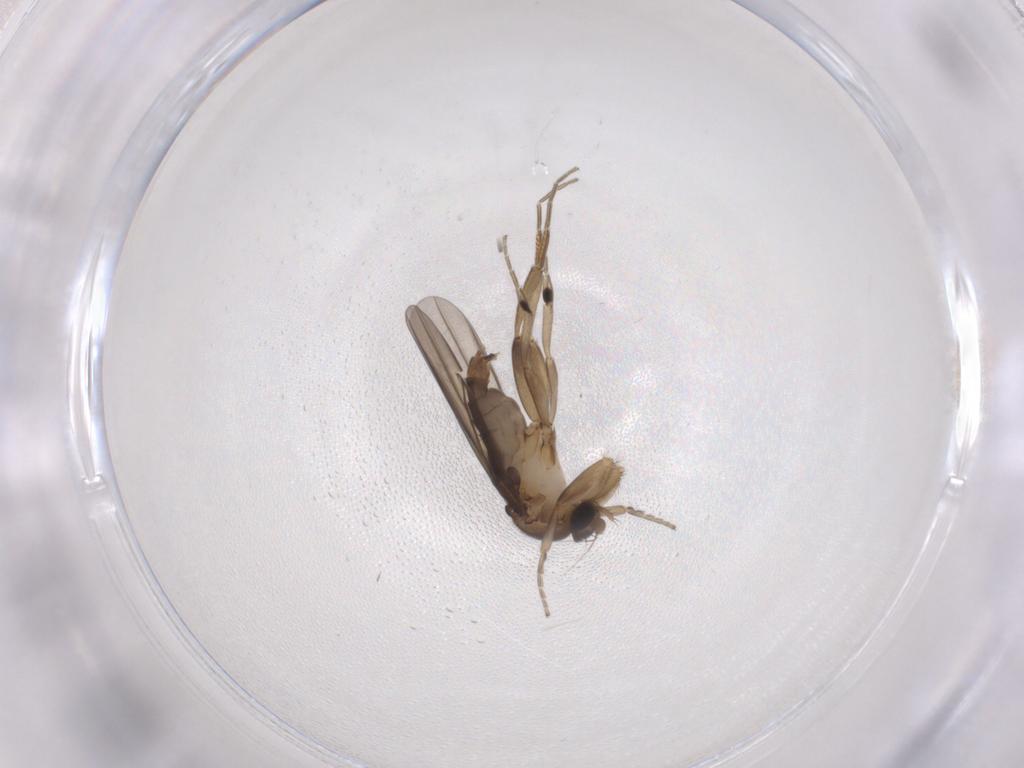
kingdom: Animalia
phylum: Arthropoda
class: Insecta
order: Diptera
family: Phoridae
